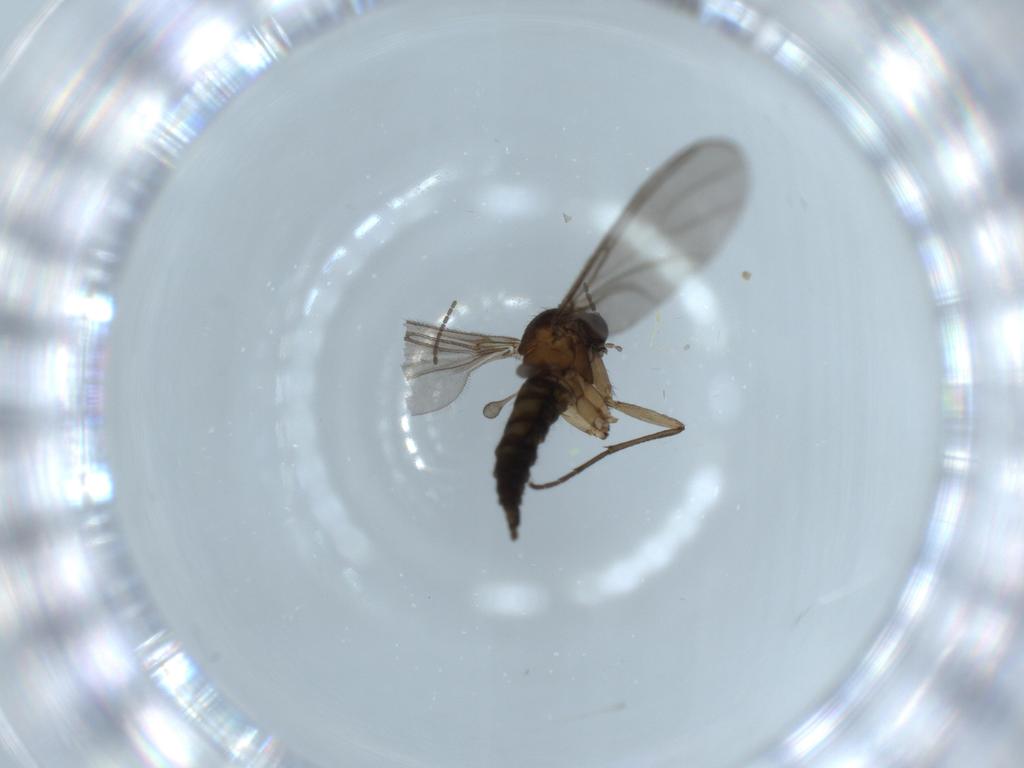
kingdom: Animalia
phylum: Arthropoda
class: Insecta
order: Diptera
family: Sciaridae
